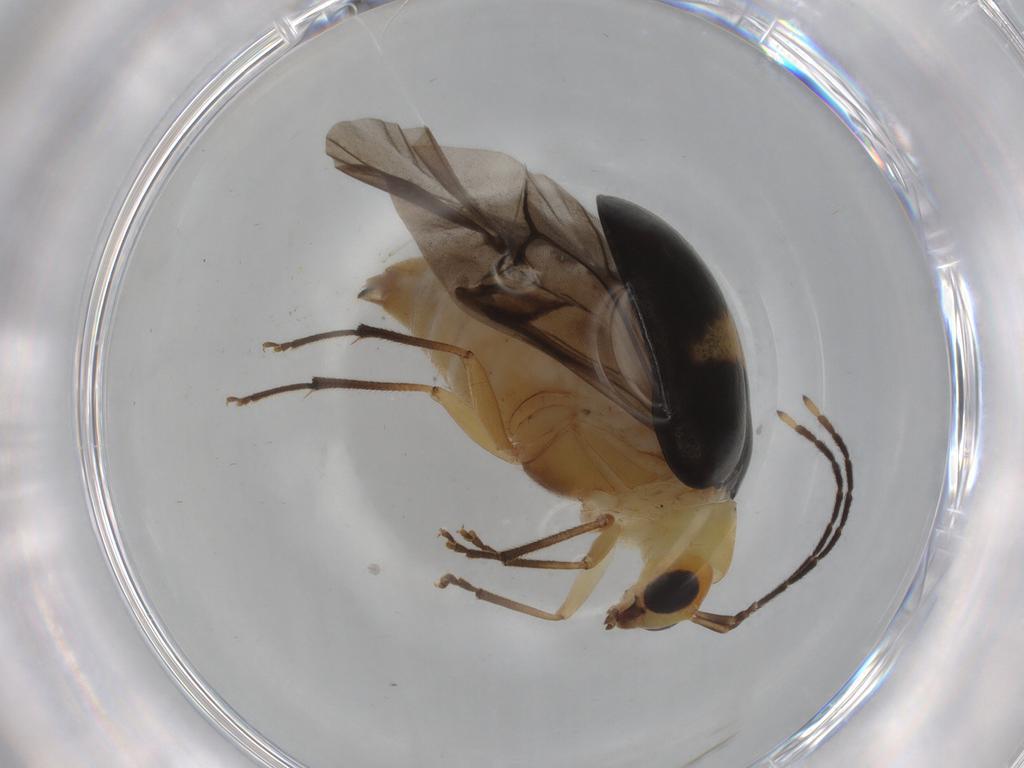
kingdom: Animalia
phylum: Arthropoda
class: Insecta
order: Coleoptera
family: Chrysomelidae
